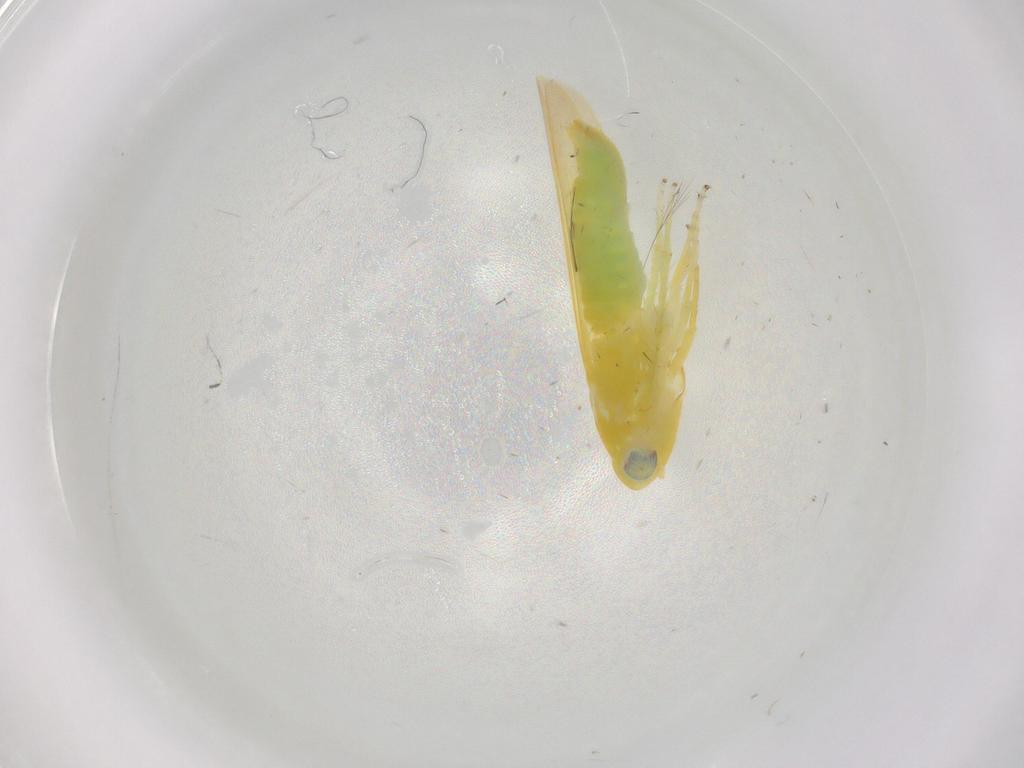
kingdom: Animalia
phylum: Arthropoda
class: Insecta
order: Hemiptera
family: Cicadellidae
